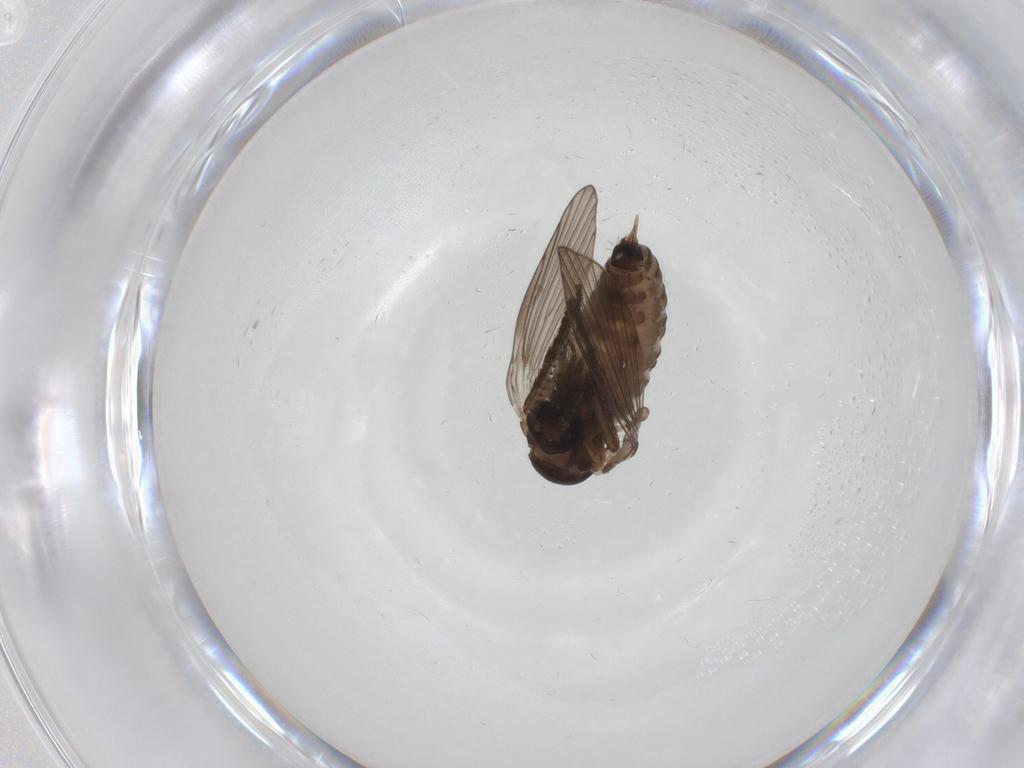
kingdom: Animalia
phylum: Arthropoda
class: Insecta
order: Diptera
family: Psychodidae
